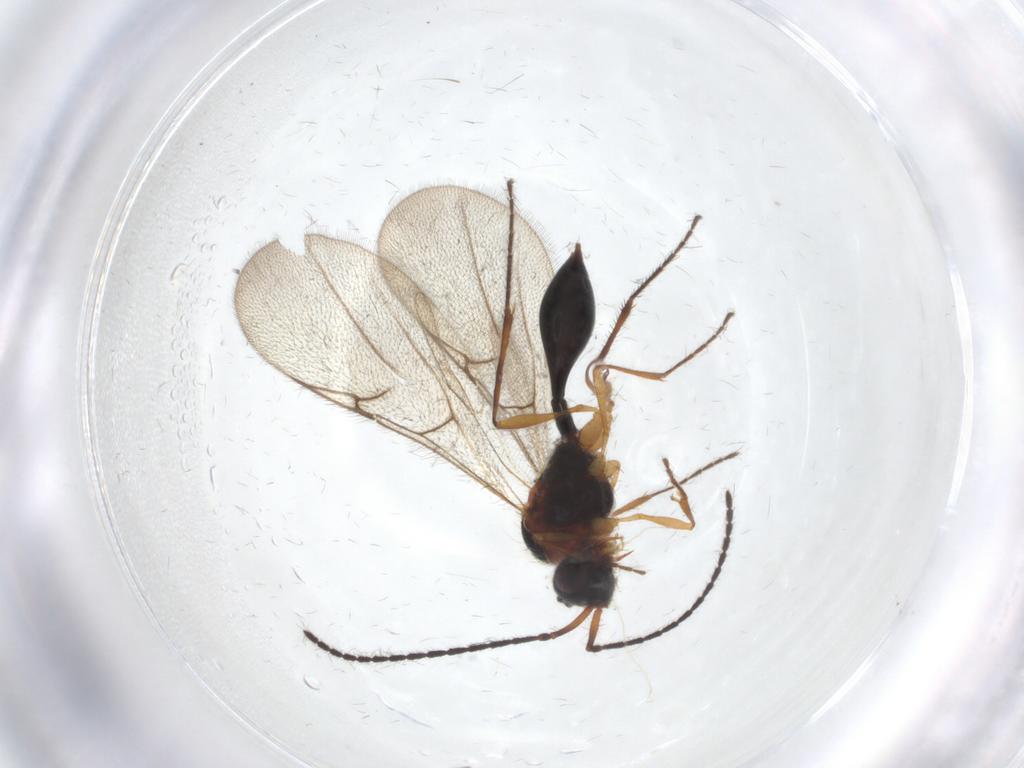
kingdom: Animalia
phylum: Arthropoda
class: Insecta
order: Hymenoptera
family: Diapriidae
